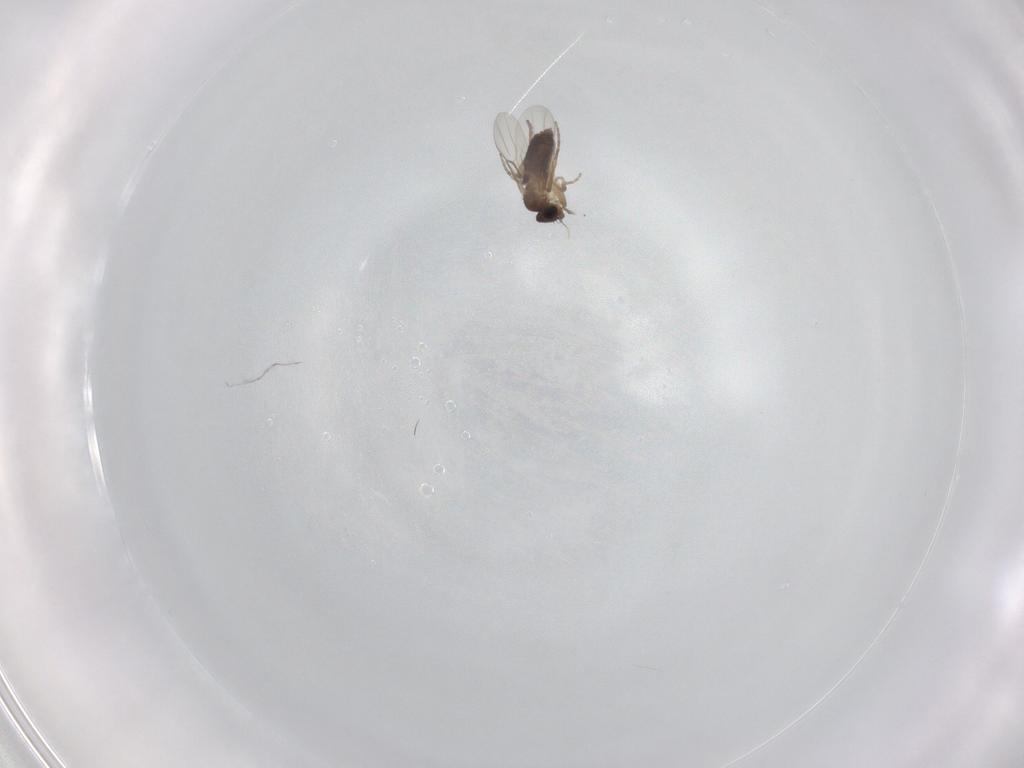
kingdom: Animalia
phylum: Arthropoda
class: Insecta
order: Diptera
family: Phoridae
